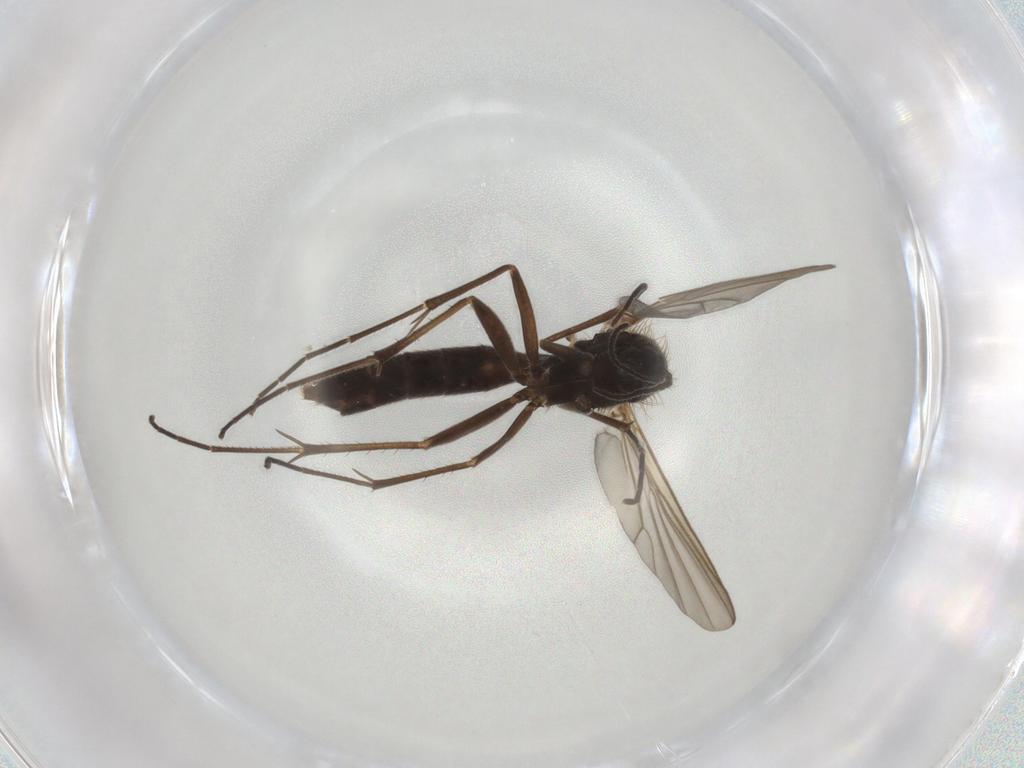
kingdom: Animalia
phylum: Arthropoda
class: Insecta
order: Diptera
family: Mycetophilidae
